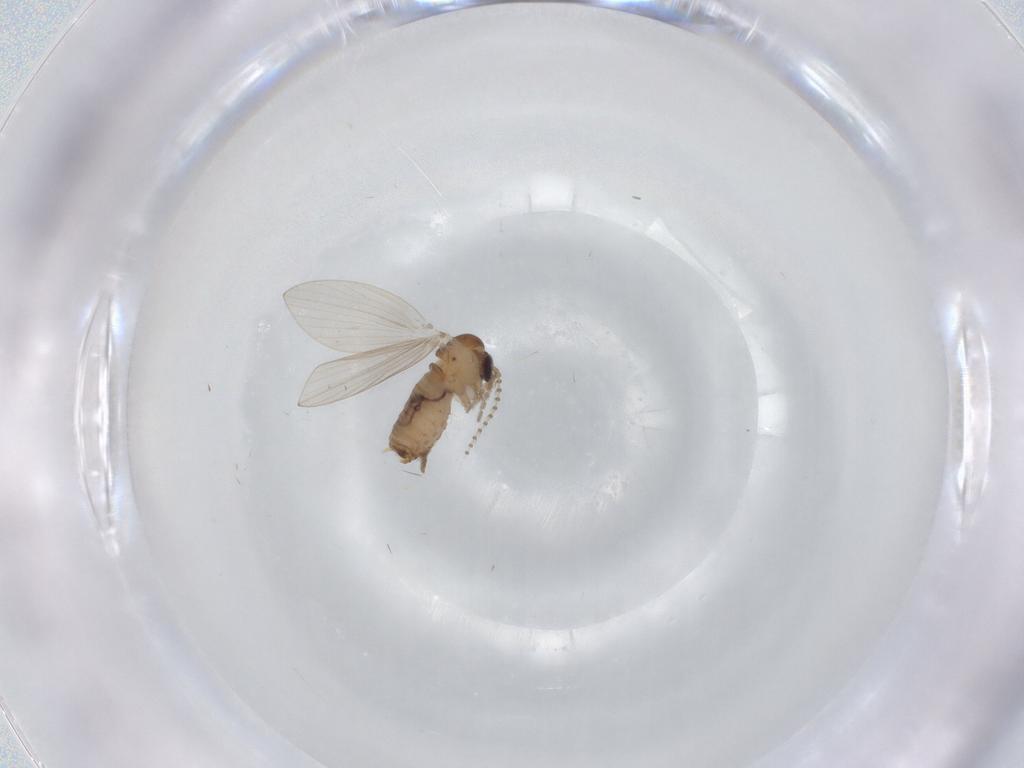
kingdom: Animalia
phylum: Arthropoda
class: Insecta
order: Diptera
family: Psychodidae
